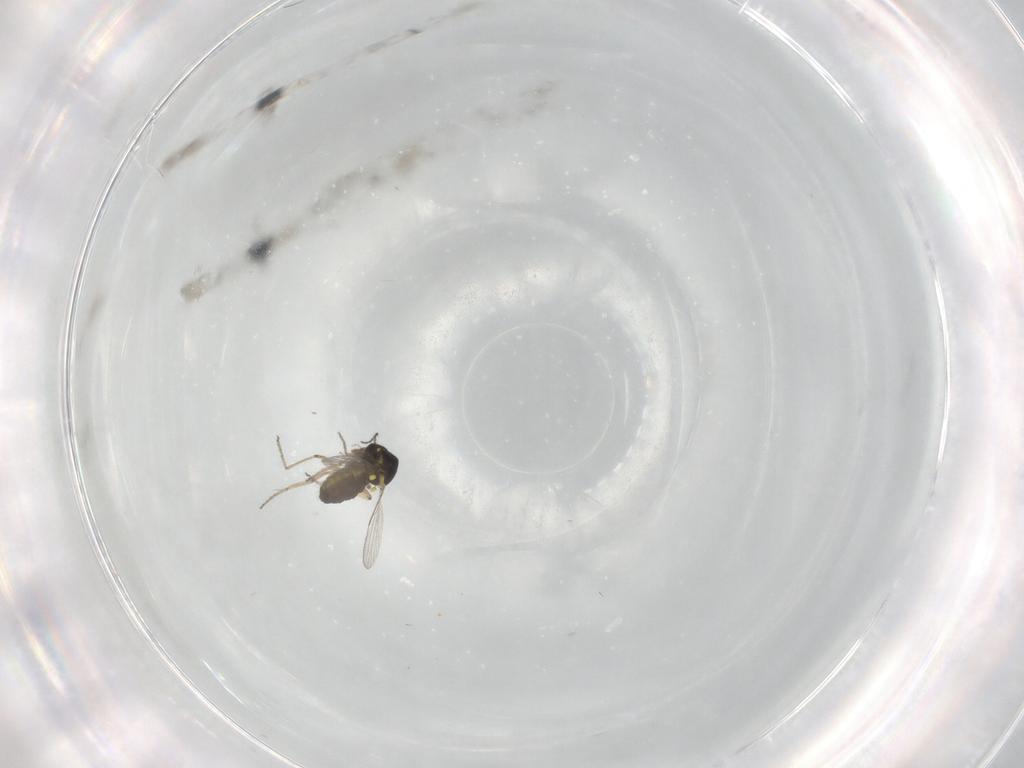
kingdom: Animalia
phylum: Arthropoda
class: Insecta
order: Diptera
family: Ceratopogonidae
